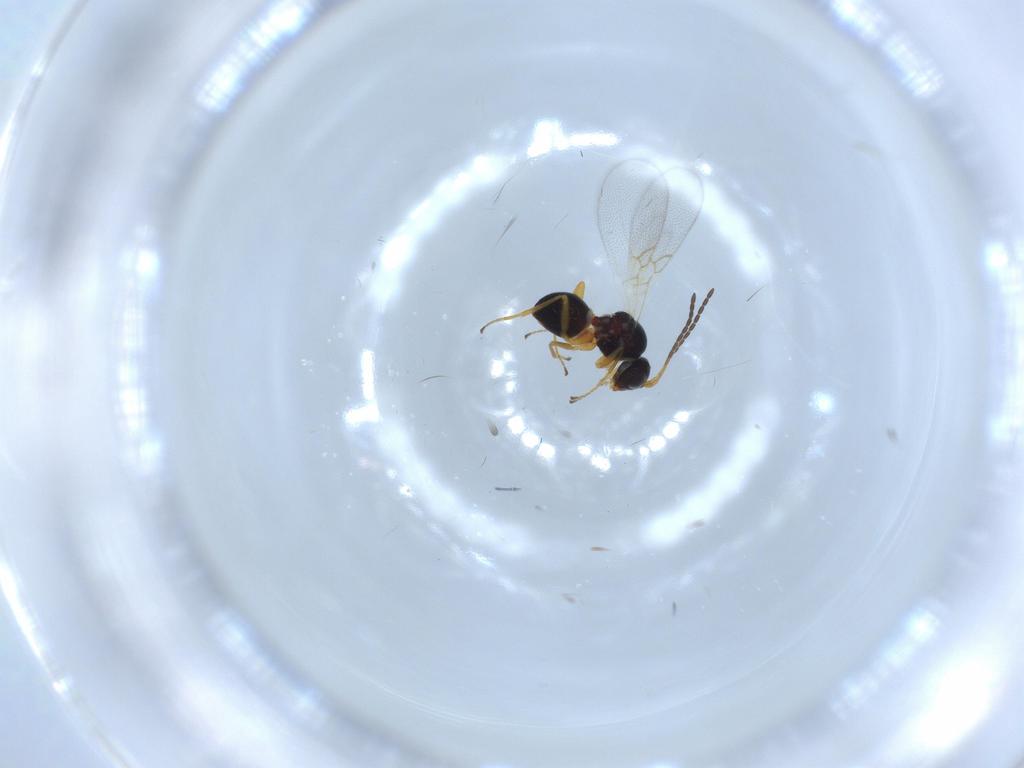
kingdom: Animalia
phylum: Arthropoda
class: Insecta
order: Hymenoptera
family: Figitidae
